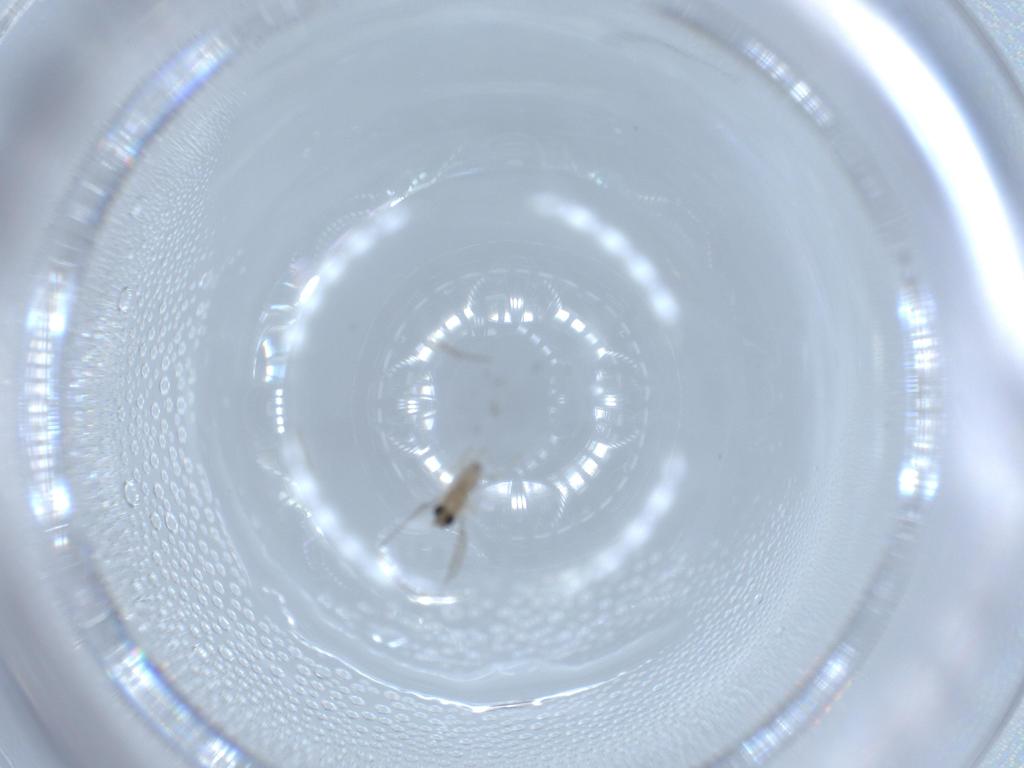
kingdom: Animalia
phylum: Arthropoda
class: Insecta
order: Diptera
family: Cecidomyiidae
